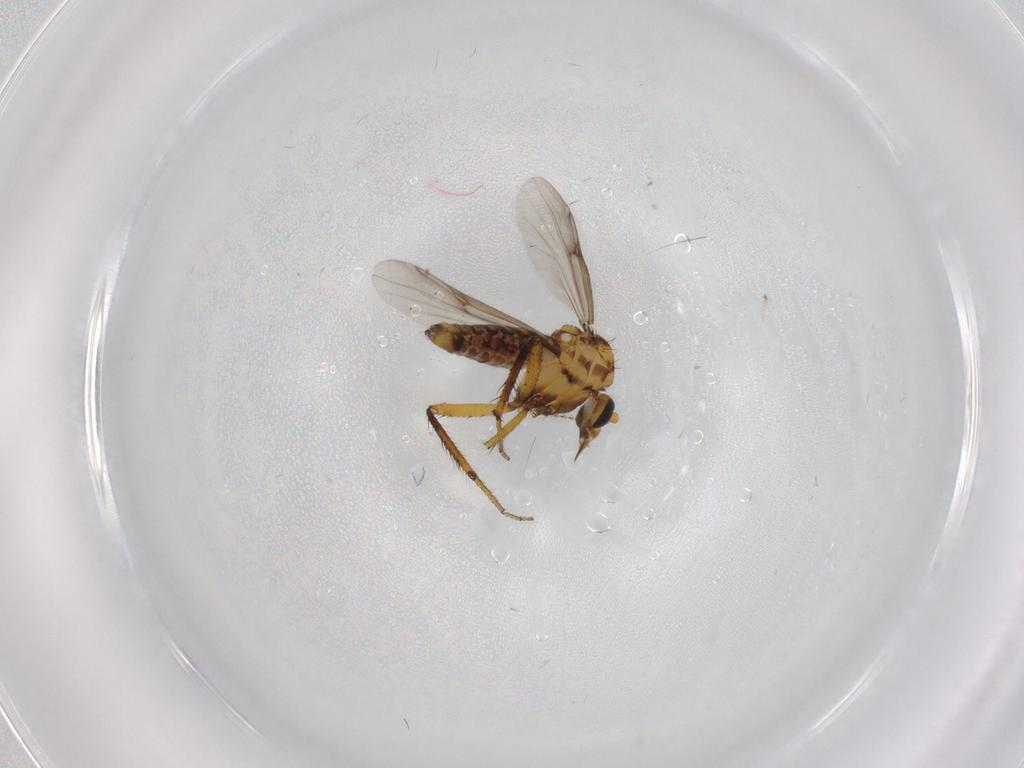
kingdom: Animalia
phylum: Arthropoda
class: Insecta
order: Diptera
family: Ceratopogonidae
